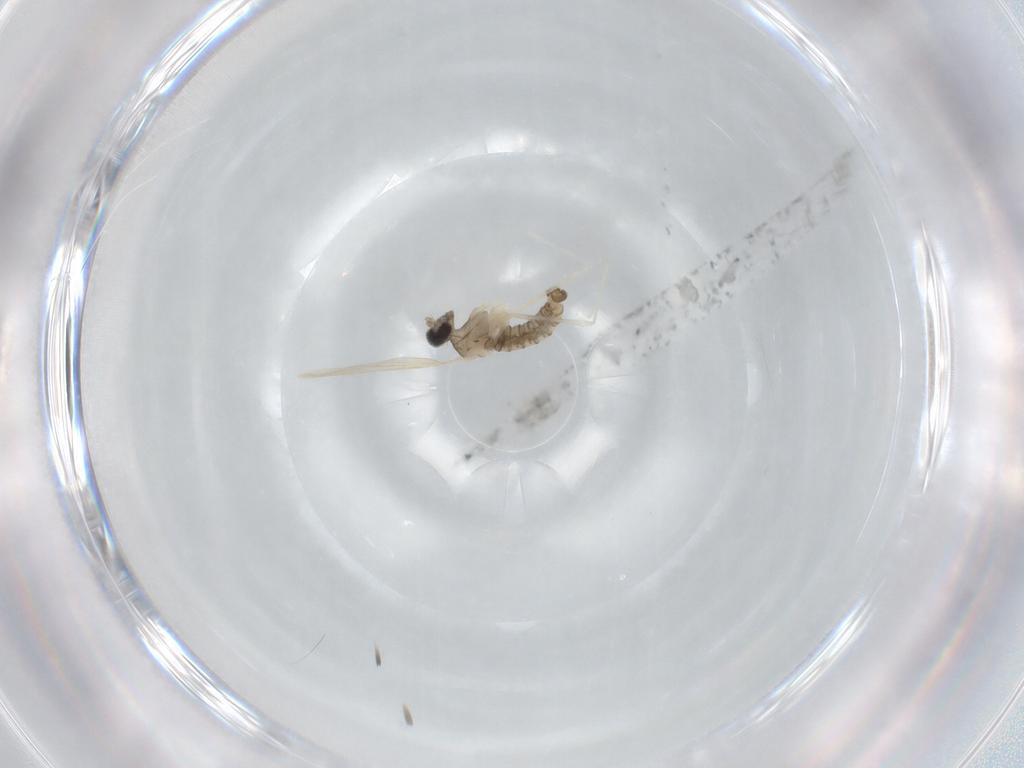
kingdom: Animalia
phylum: Arthropoda
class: Insecta
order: Diptera
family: Cecidomyiidae
